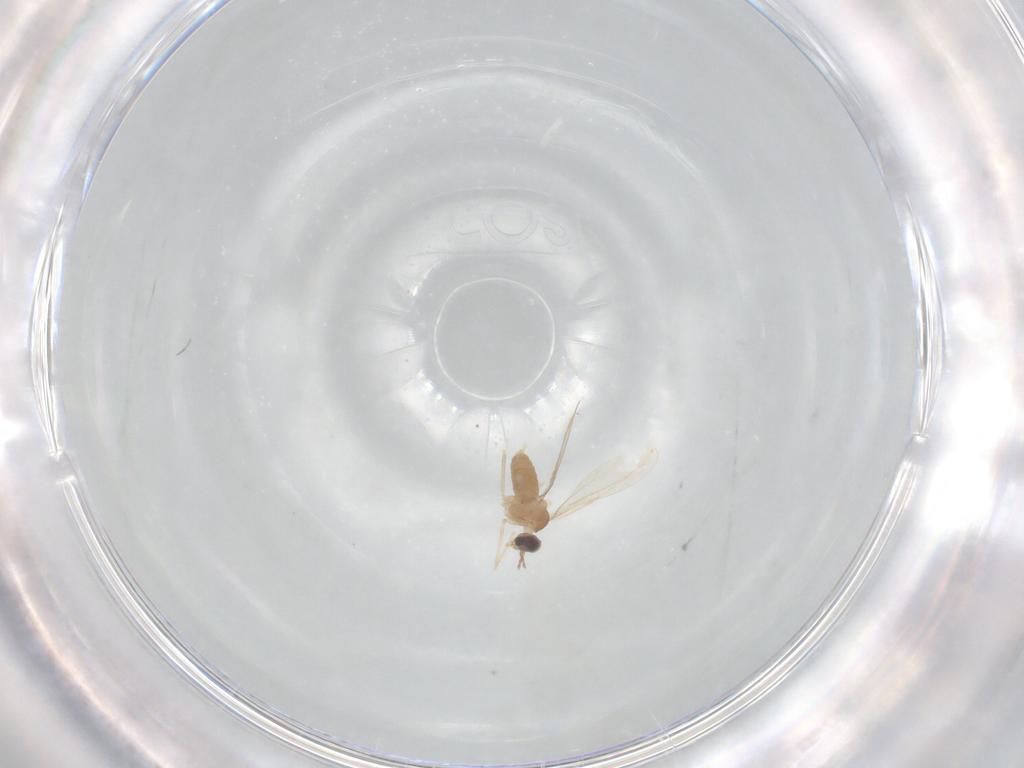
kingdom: Animalia
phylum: Arthropoda
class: Insecta
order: Diptera
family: Cecidomyiidae
